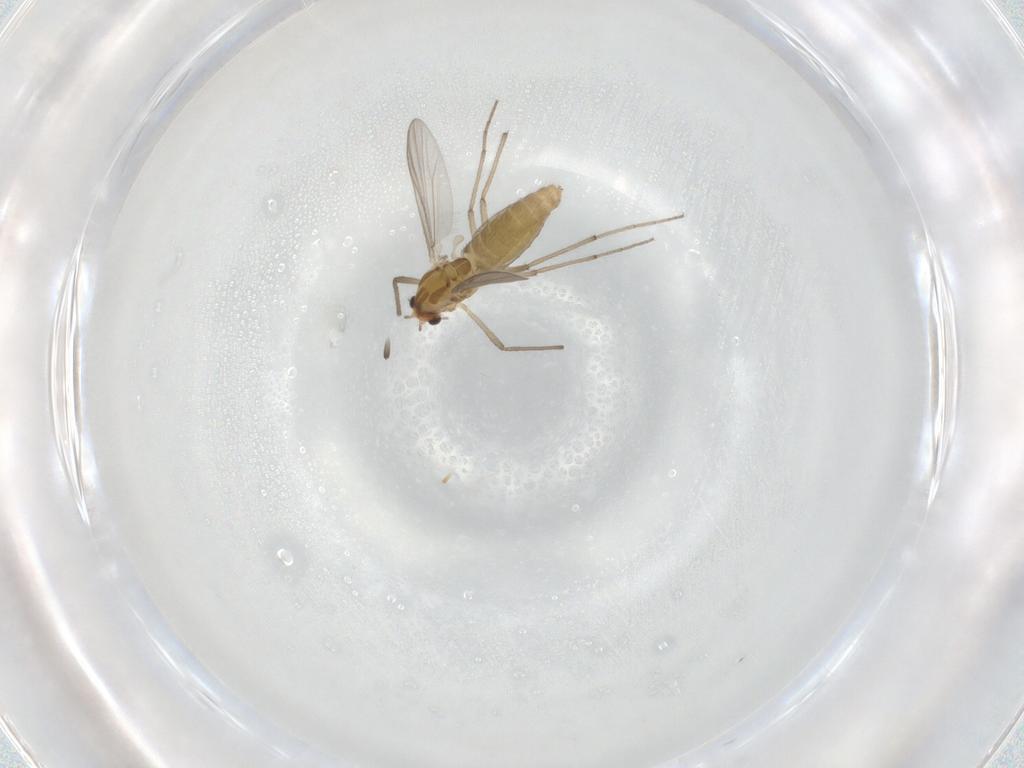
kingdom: Animalia
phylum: Arthropoda
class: Insecta
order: Diptera
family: Chironomidae
